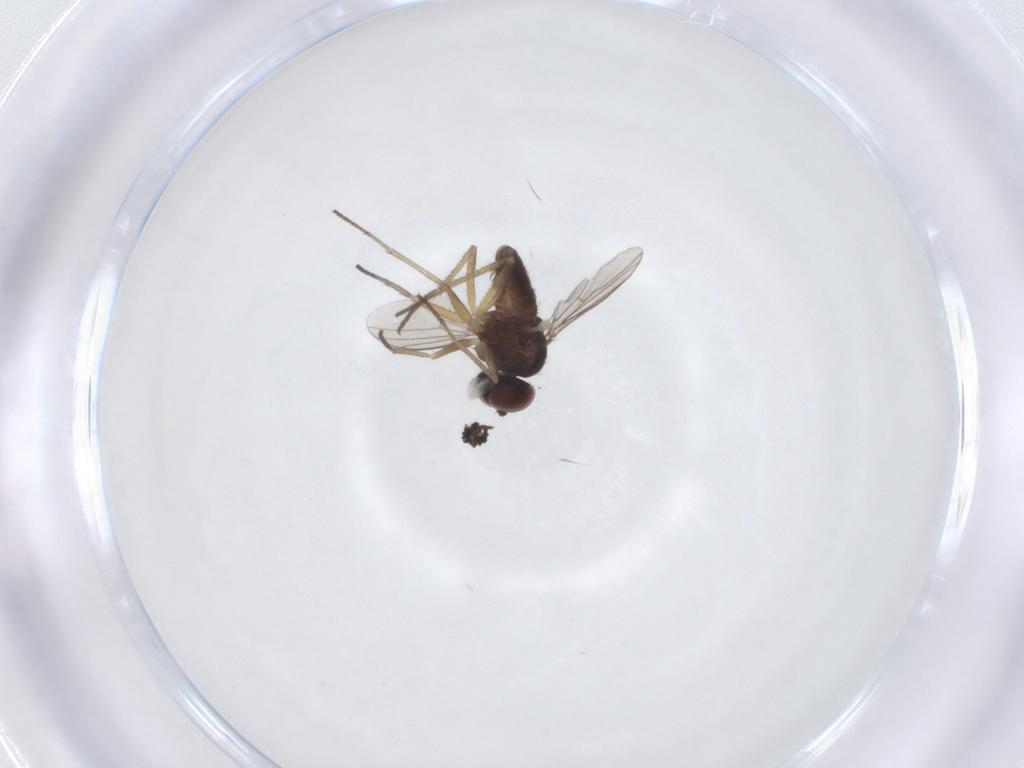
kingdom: Animalia
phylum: Arthropoda
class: Insecta
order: Diptera
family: Dolichopodidae
